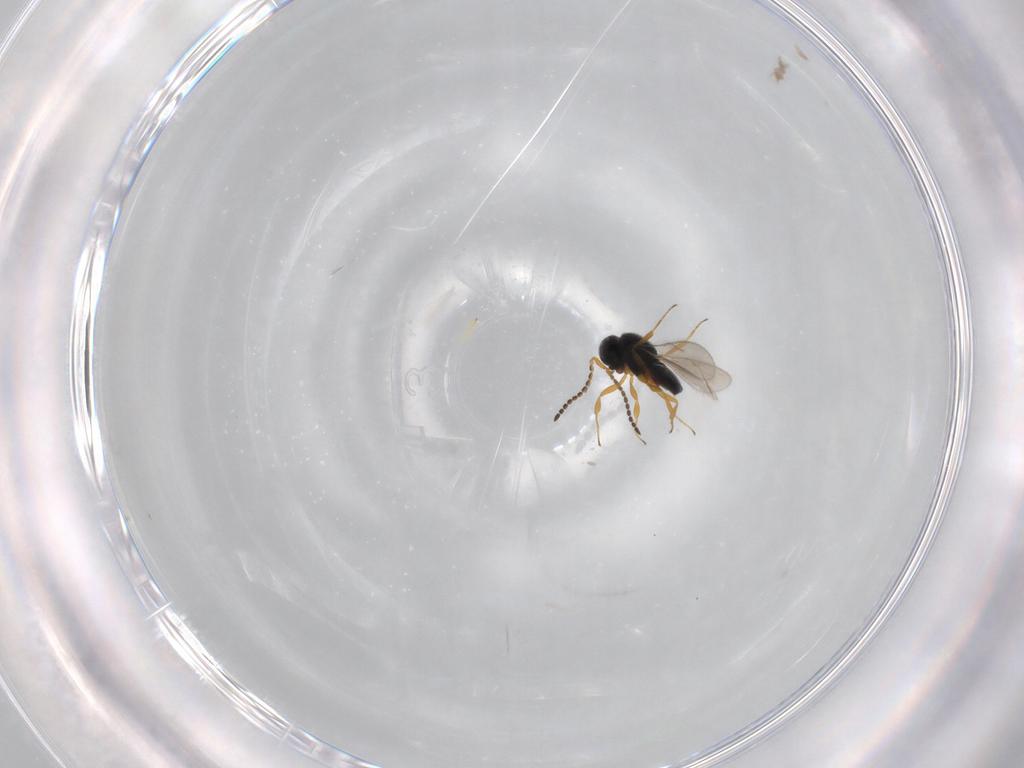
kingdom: Animalia
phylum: Arthropoda
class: Insecta
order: Hymenoptera
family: Scelionidae
